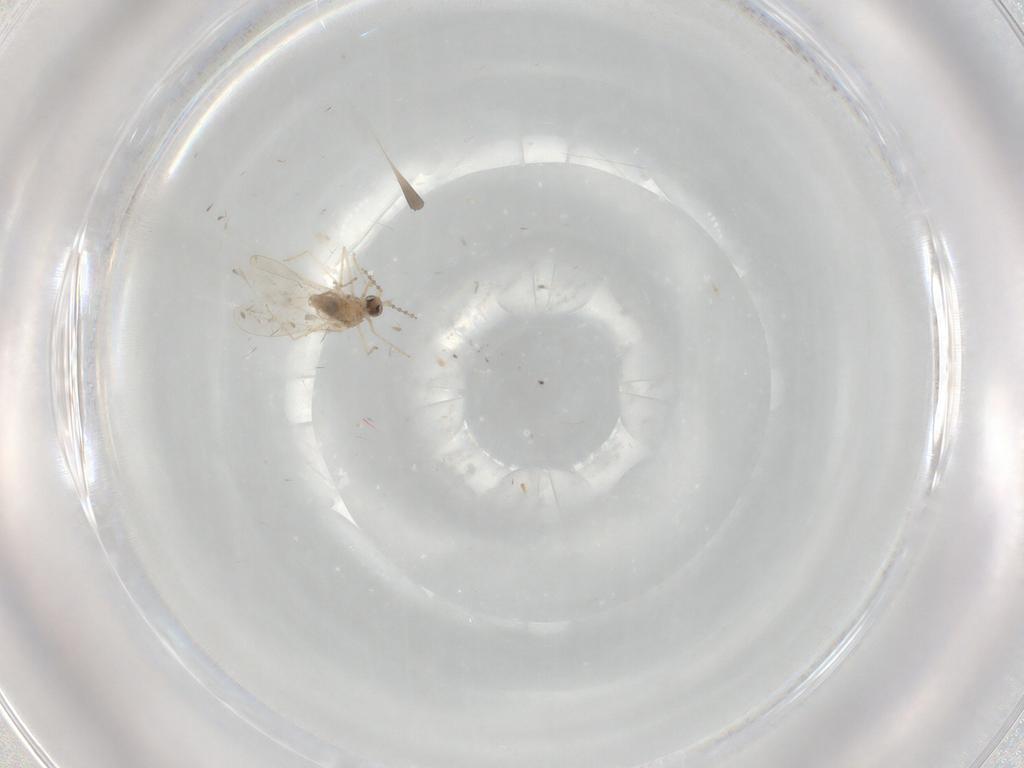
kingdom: Animalia
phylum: Arthropoda
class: Insecta
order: Diptera
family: Cecidomyiidae
